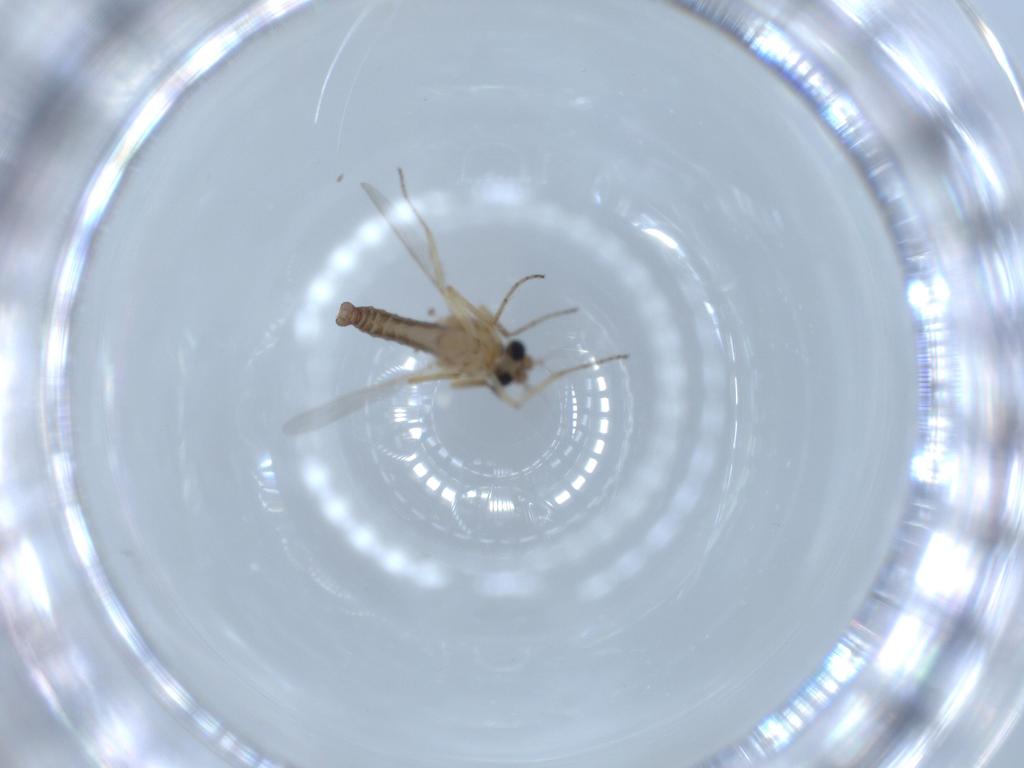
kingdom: Animalia
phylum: Arthropoda
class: Insecta
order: Diptera
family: Ceratopogonidae
